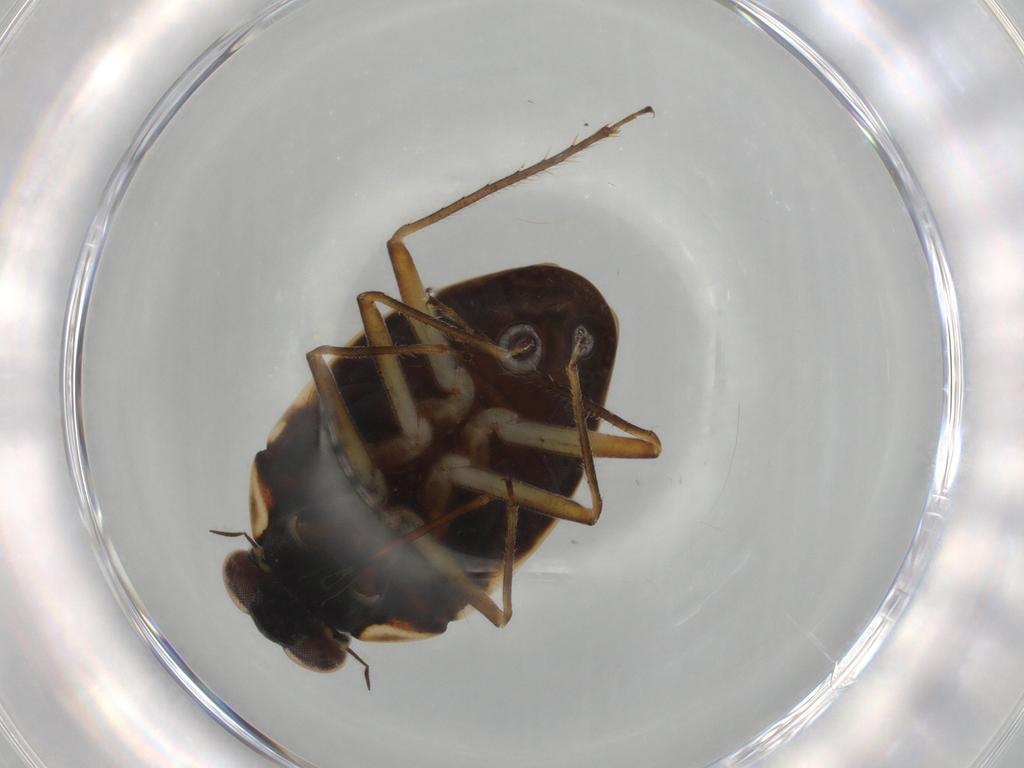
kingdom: Animalia
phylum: Arthropoda
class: Insecta
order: Hemiptera
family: Ochteridae
